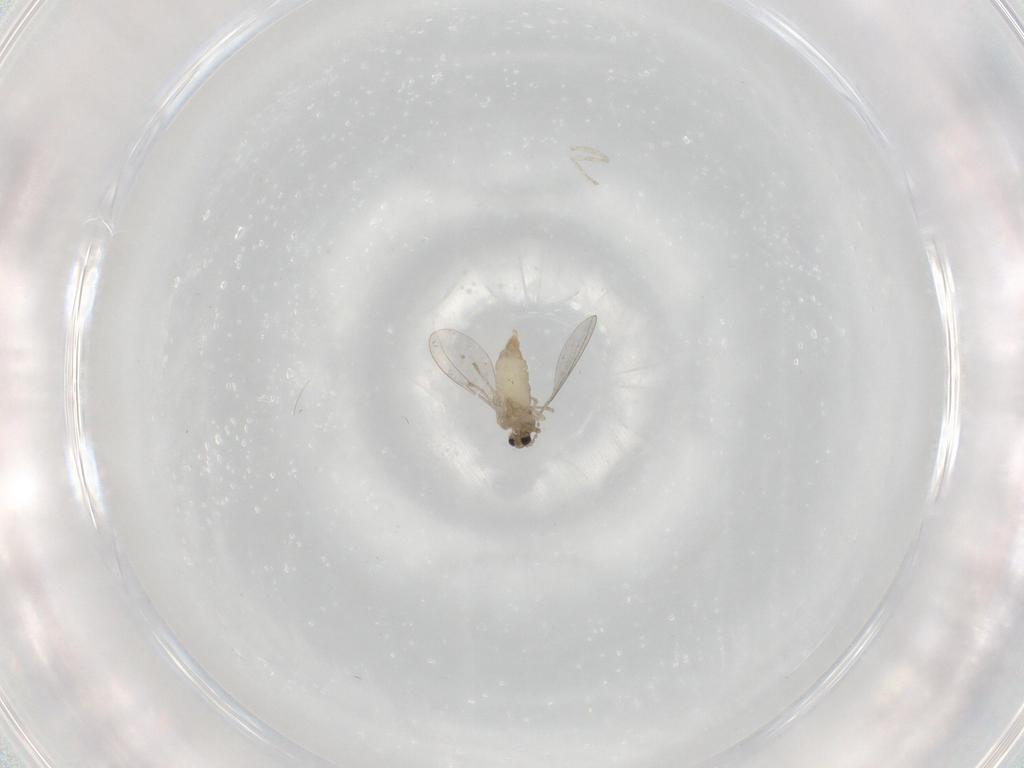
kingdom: Animalia
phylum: Arthropoda
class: Insecta
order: Diptera
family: Cecidomyiidae
